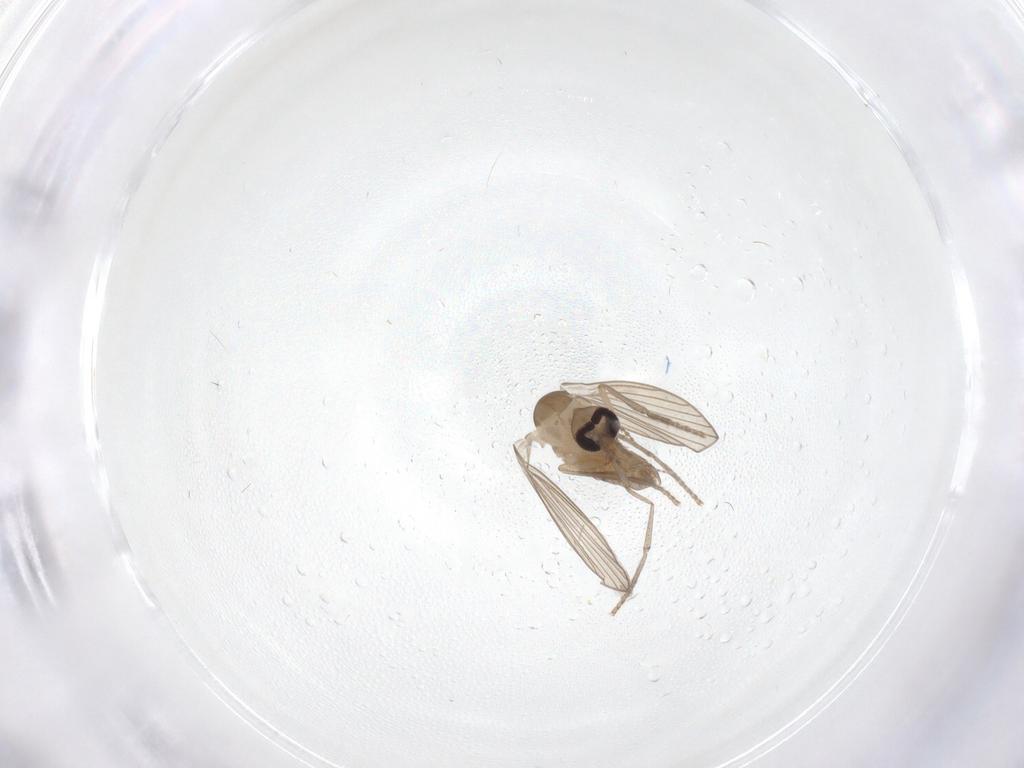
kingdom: Animalia
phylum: Arthropoda
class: Insecta
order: Diptera
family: Psychodidae
